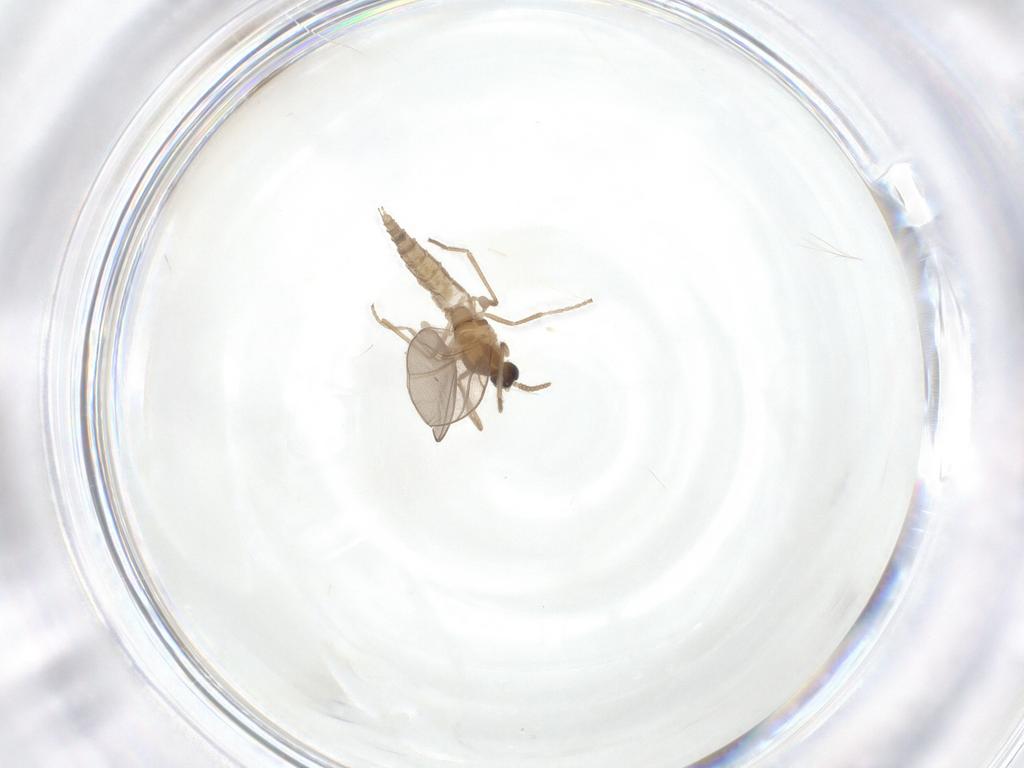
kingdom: Animalia
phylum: Arthropoda
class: Insecta
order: Diptera
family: Cecidomyiidae
